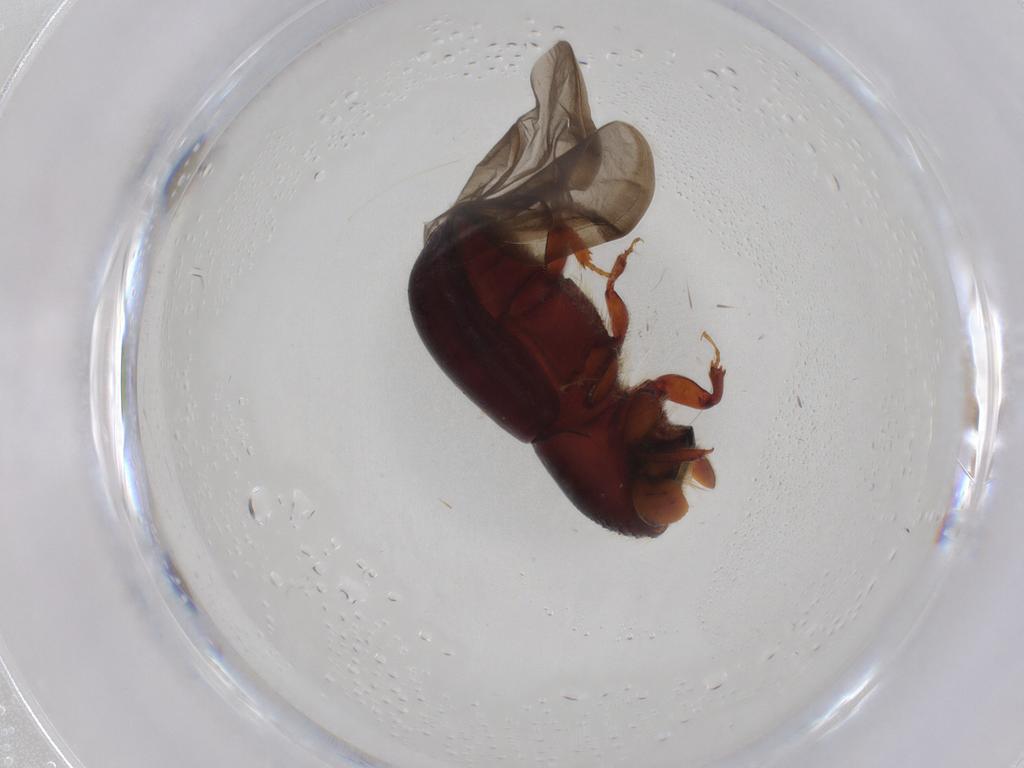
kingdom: Animalia
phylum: Arthropoda
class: Insecta
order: Coleoptera
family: Curculionidae
